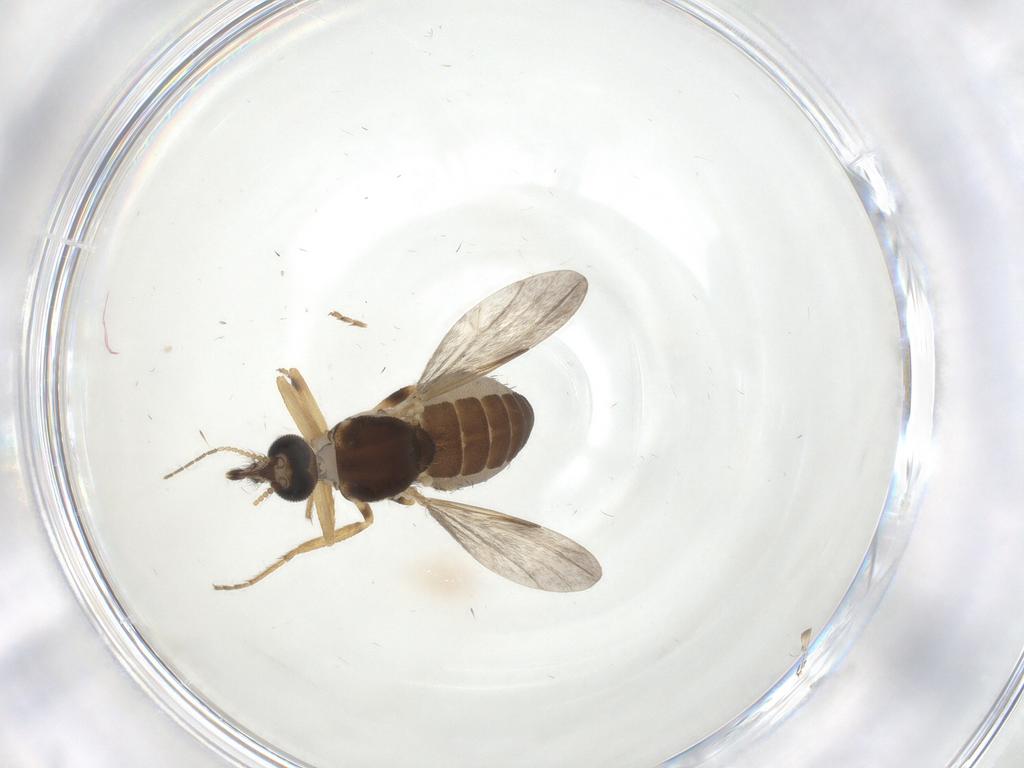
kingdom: Animalia
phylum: Arthropoda
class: Insecta
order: Diptera
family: Ceratopogonidae
